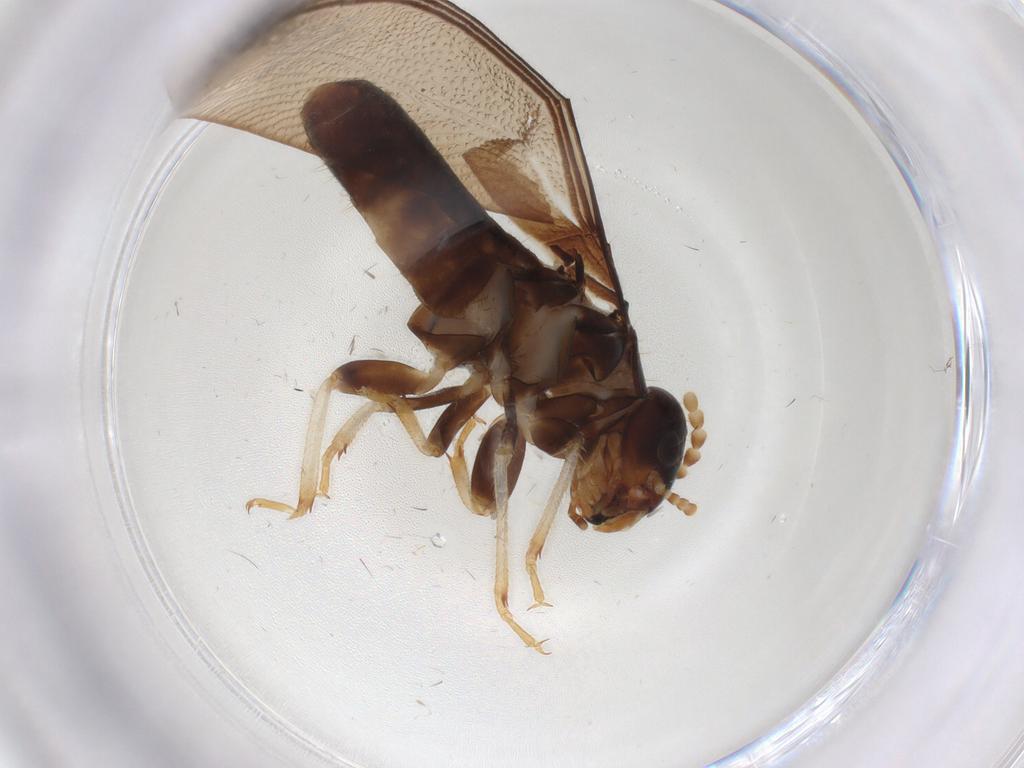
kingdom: Animalia
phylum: Arthropoda
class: Insecta
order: Blattodea
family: Kalotermitidae
